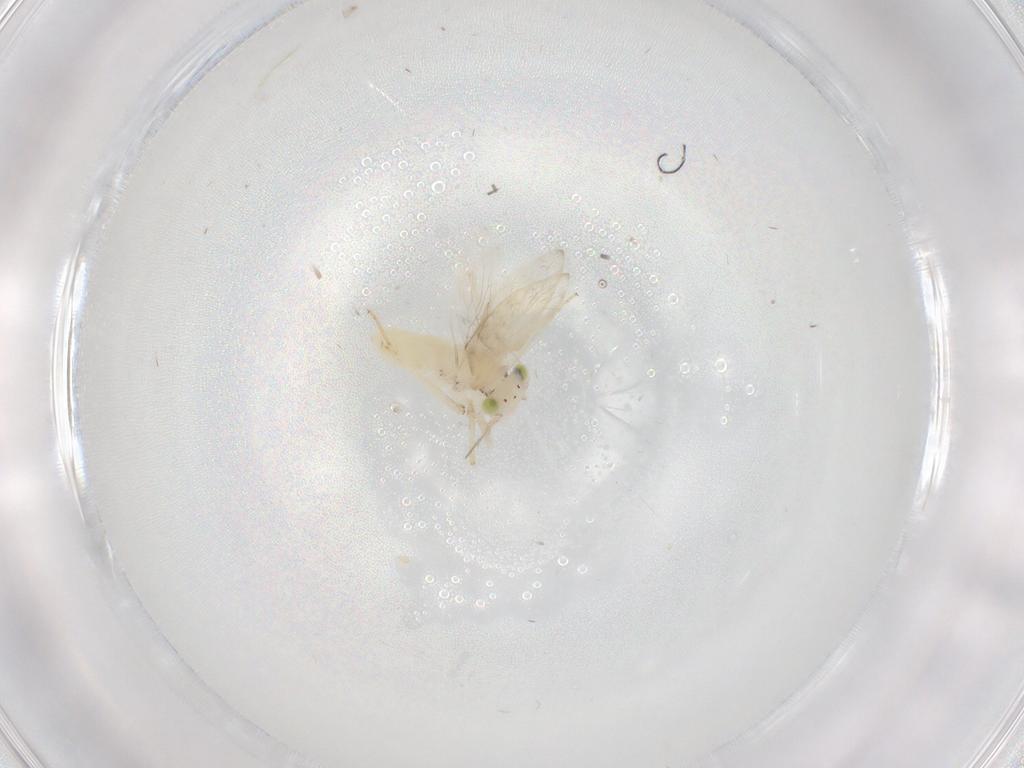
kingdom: Animalia
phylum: Arthropoda
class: Insecta
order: Psocodea
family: Lepidopsocidae
